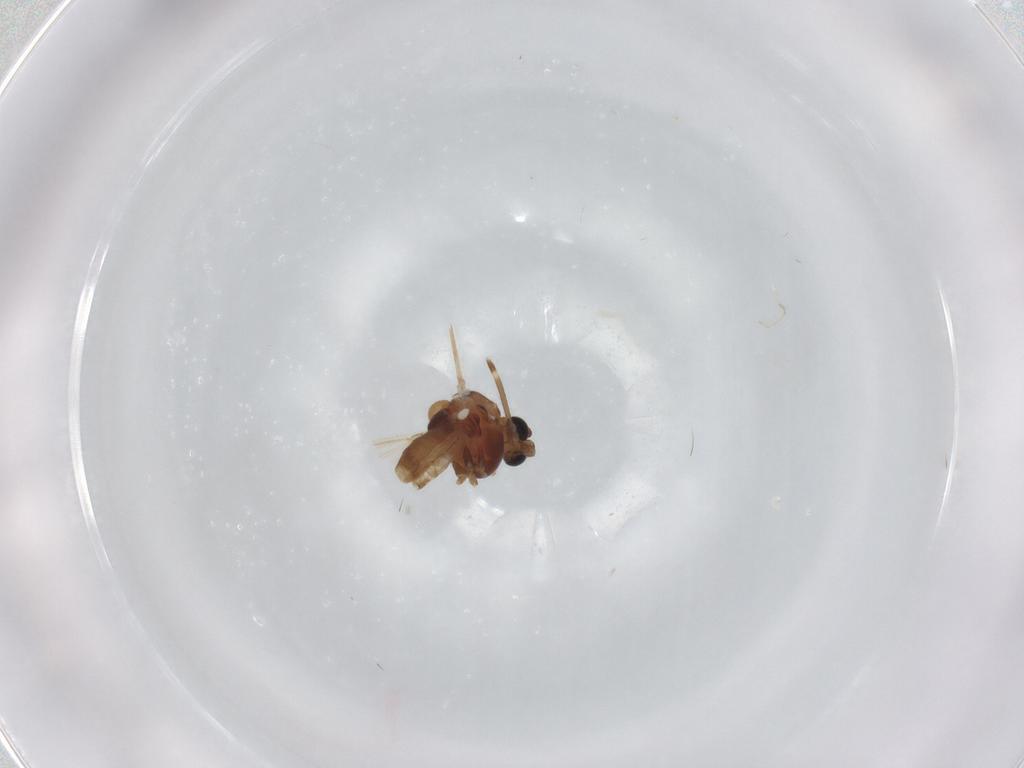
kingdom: Animalia
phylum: Arthropoda
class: Insecta
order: Diptera
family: Chironomidae
